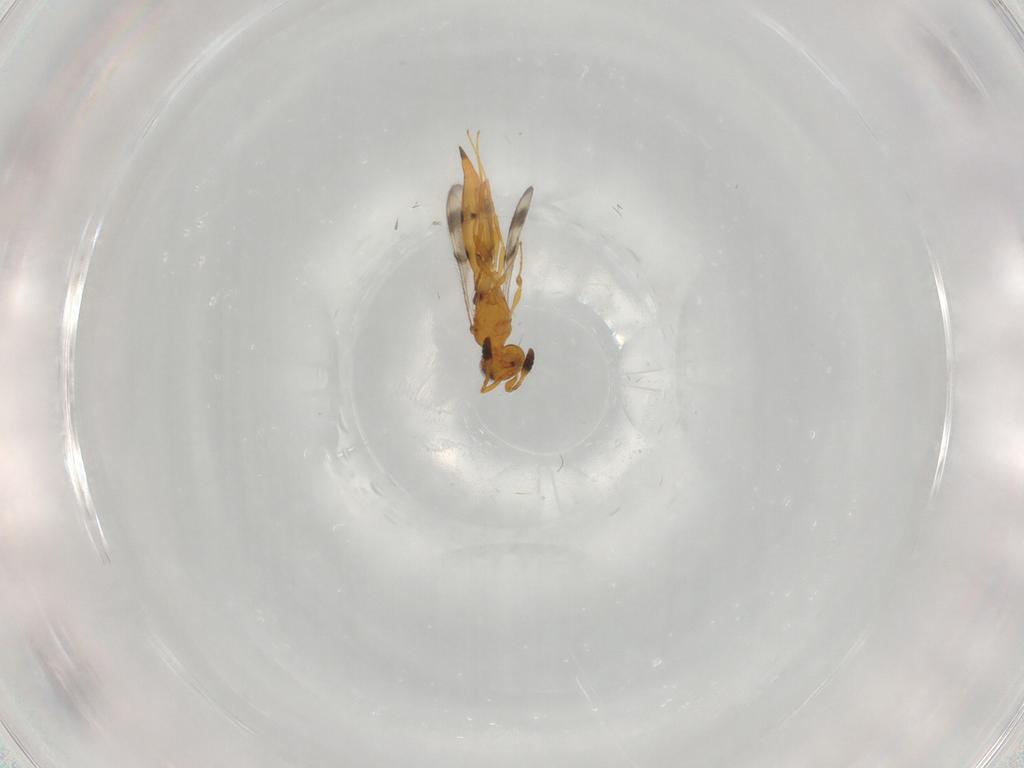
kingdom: Animalia
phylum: Arthropoda
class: Insecta
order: Hymenoptera
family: Scelionidae
